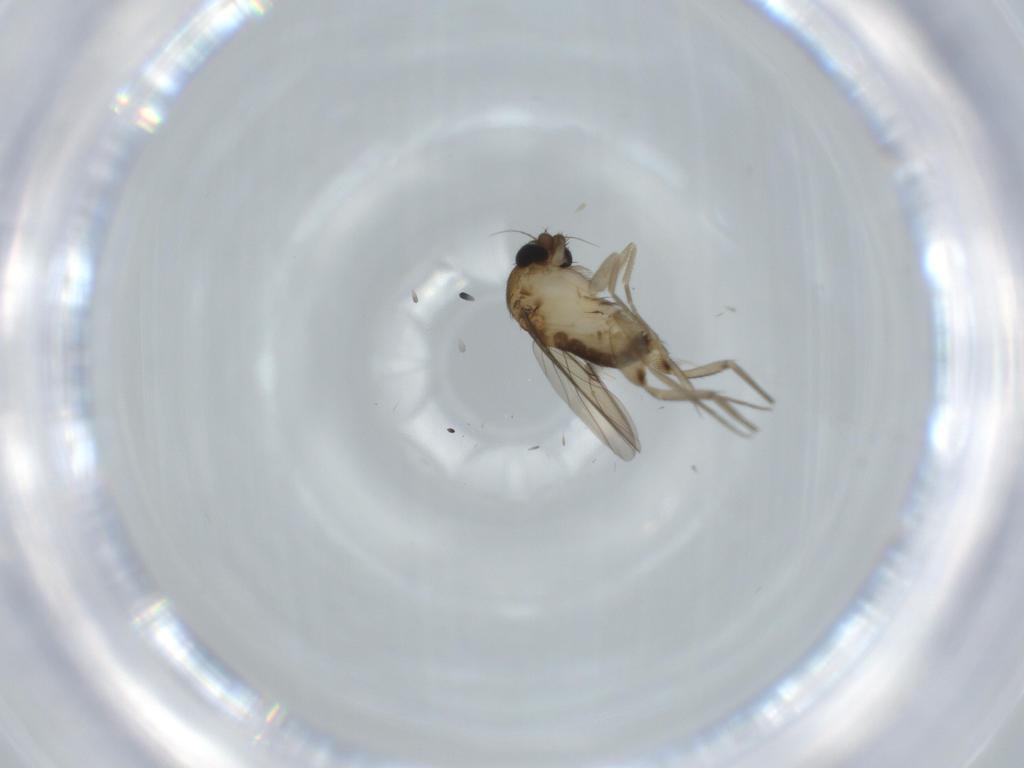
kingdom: Animalia
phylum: Arthropoda
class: Insecta
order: Diptera
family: Phoridae
